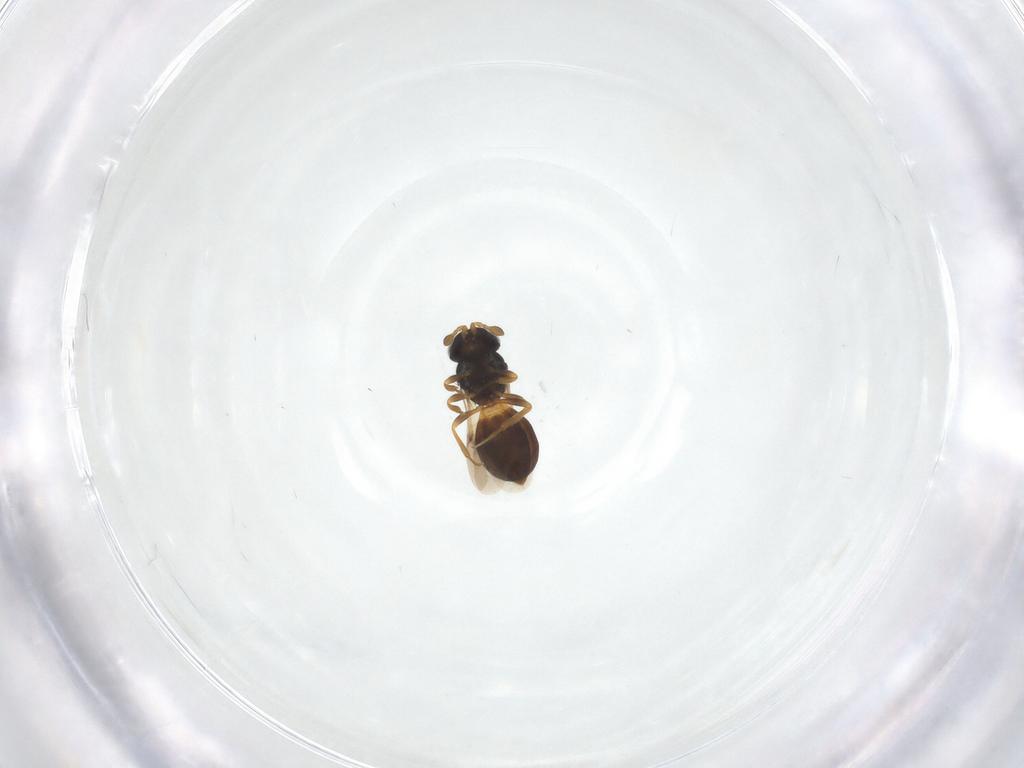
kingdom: Animalia
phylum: Arthropoda
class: Insecta
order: Hymenoptera
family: Scelionidae
